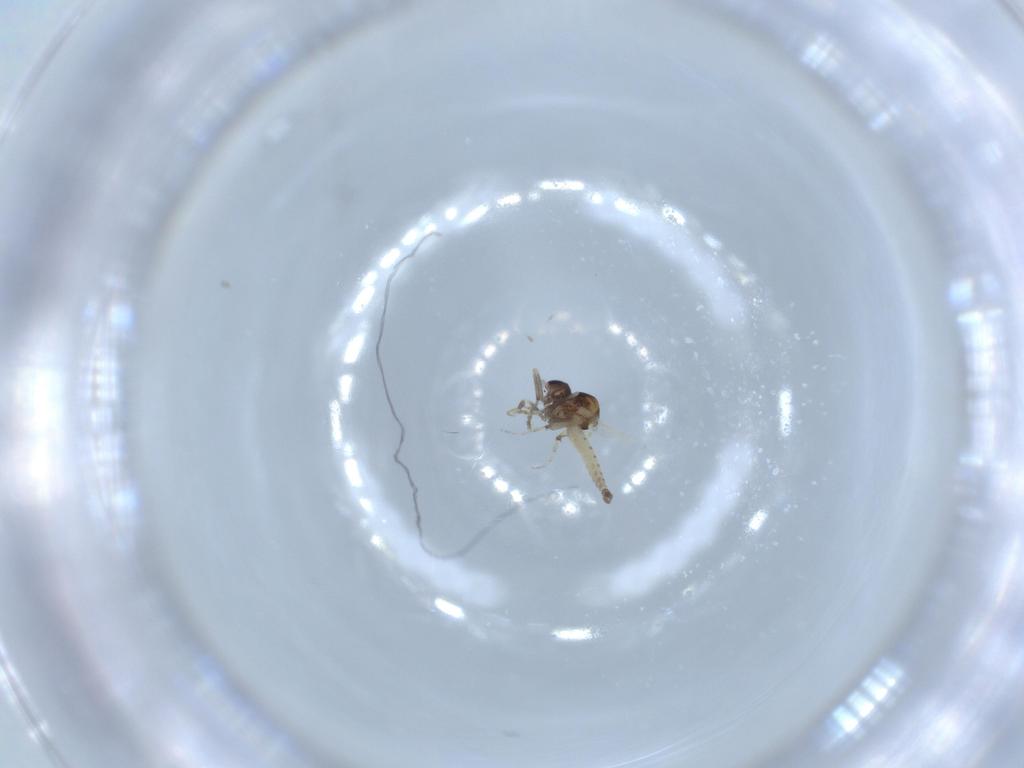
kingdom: Animalia
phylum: Arthropoda
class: Insecta
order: Diptera
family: Ceratopogonidae
